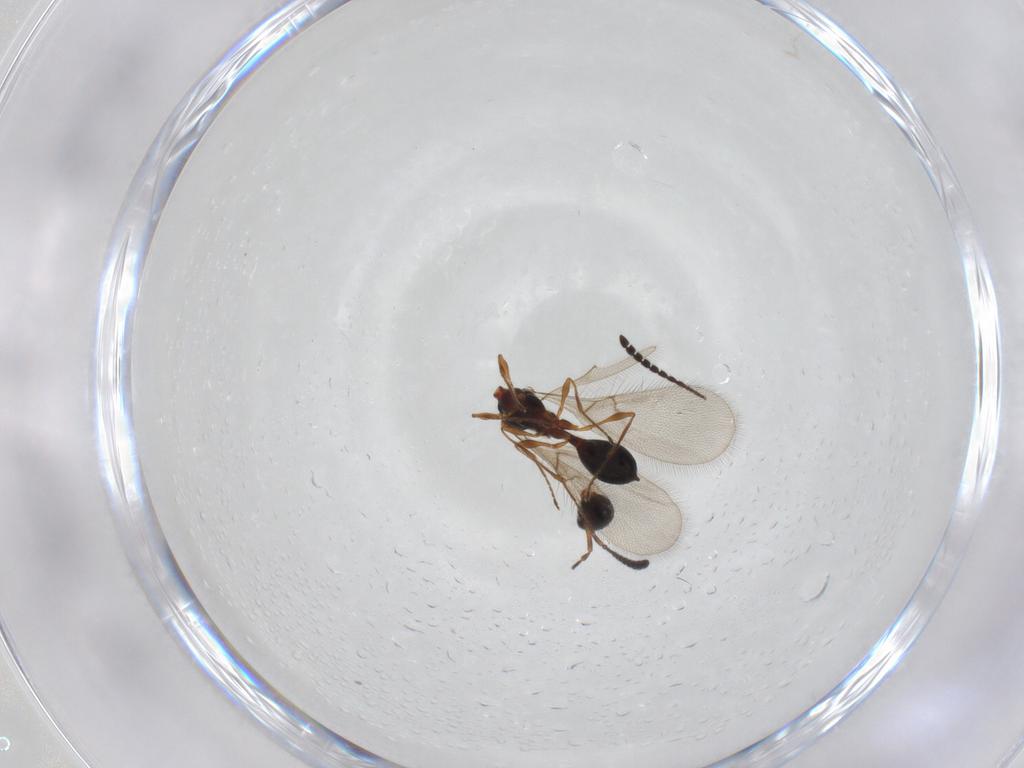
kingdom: Animalia
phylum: Arthropoda
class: Insecta
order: Hymenoptera
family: Diapriidae
